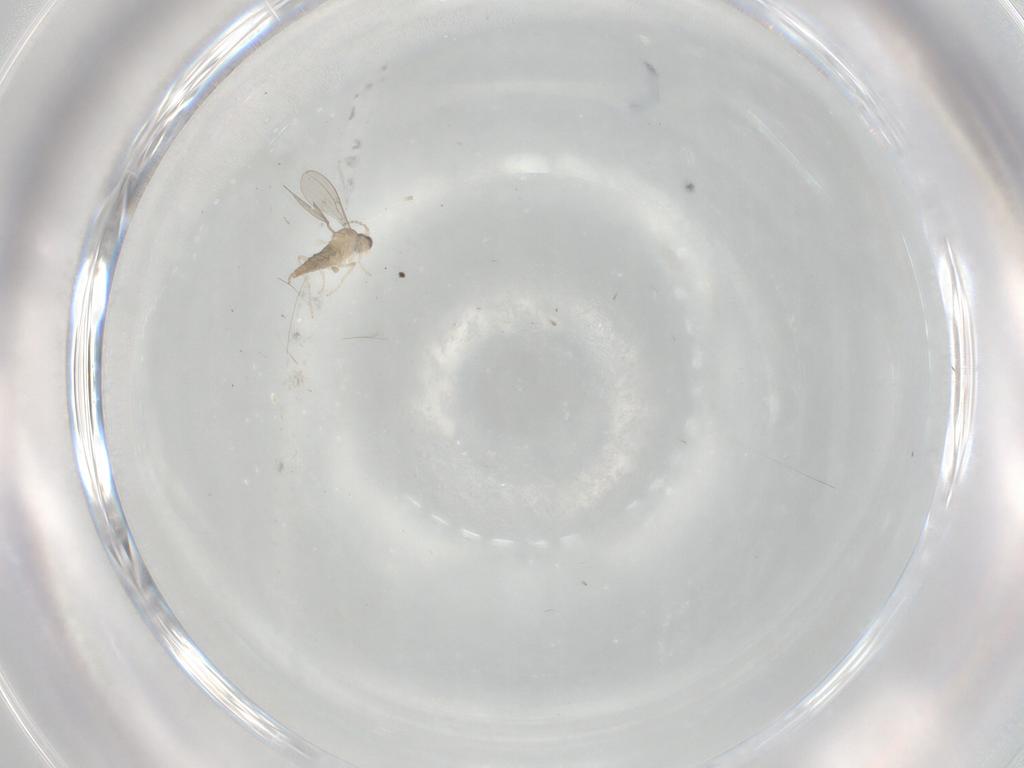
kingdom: Animalia
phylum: Arthropoda
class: Insecta
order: Diptera
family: Cecidomyiidae
